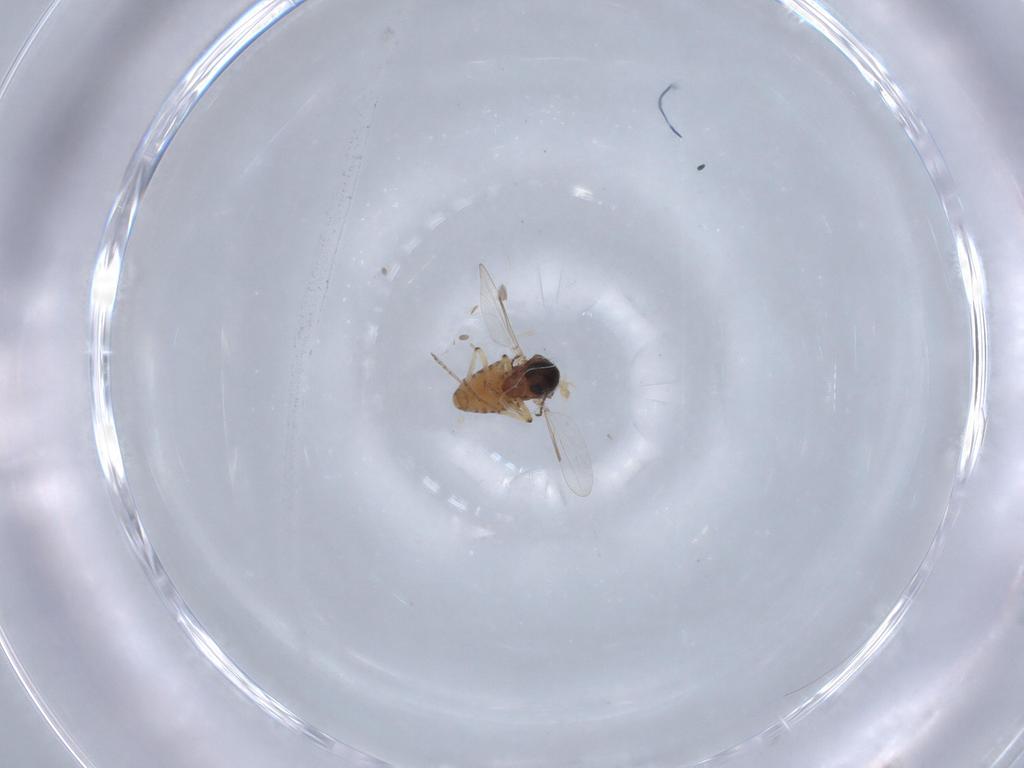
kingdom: Animalia
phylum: Arthropoda
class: Insecta
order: Diptera
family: Ceratopogonidae
